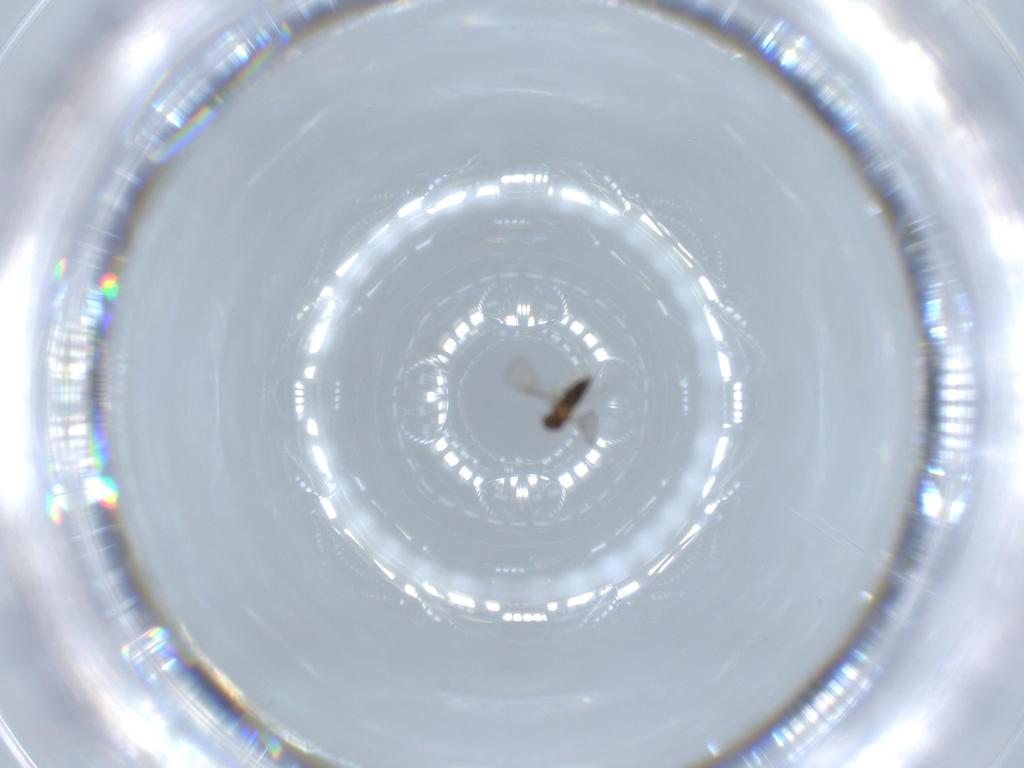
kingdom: Animalia
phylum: Arthropoda
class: Insecta
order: Hymenoptera
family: Trichogrammatidae
